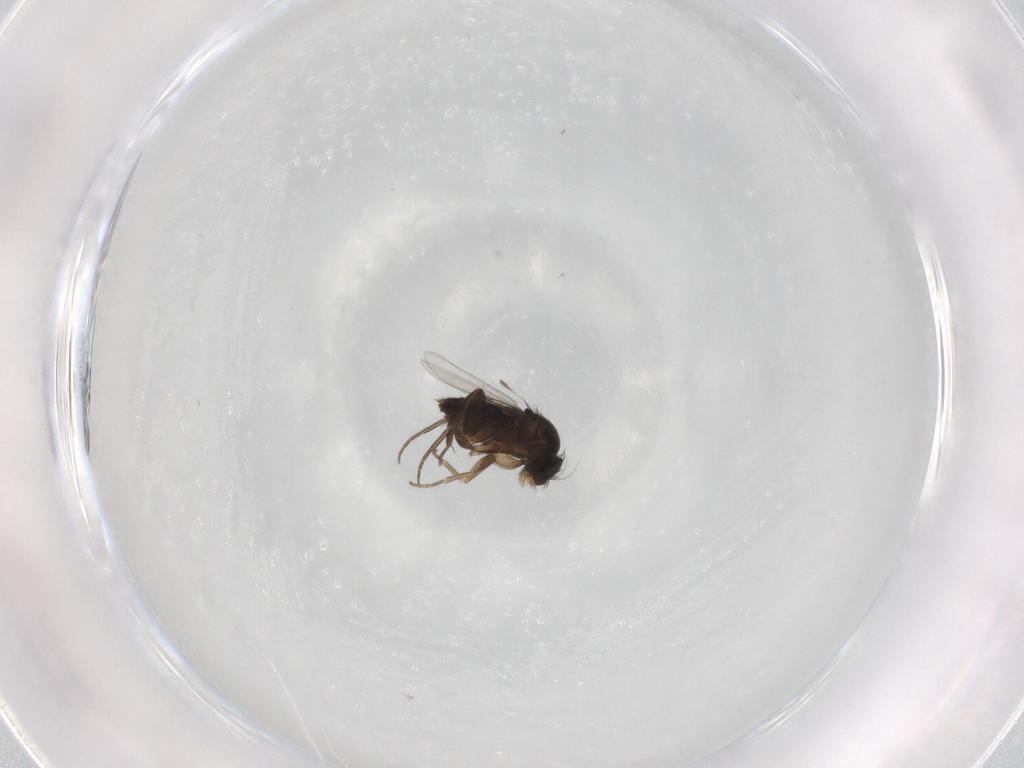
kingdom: Animalia
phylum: Arthropoda
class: Insecta
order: Diptera
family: Phoridae
